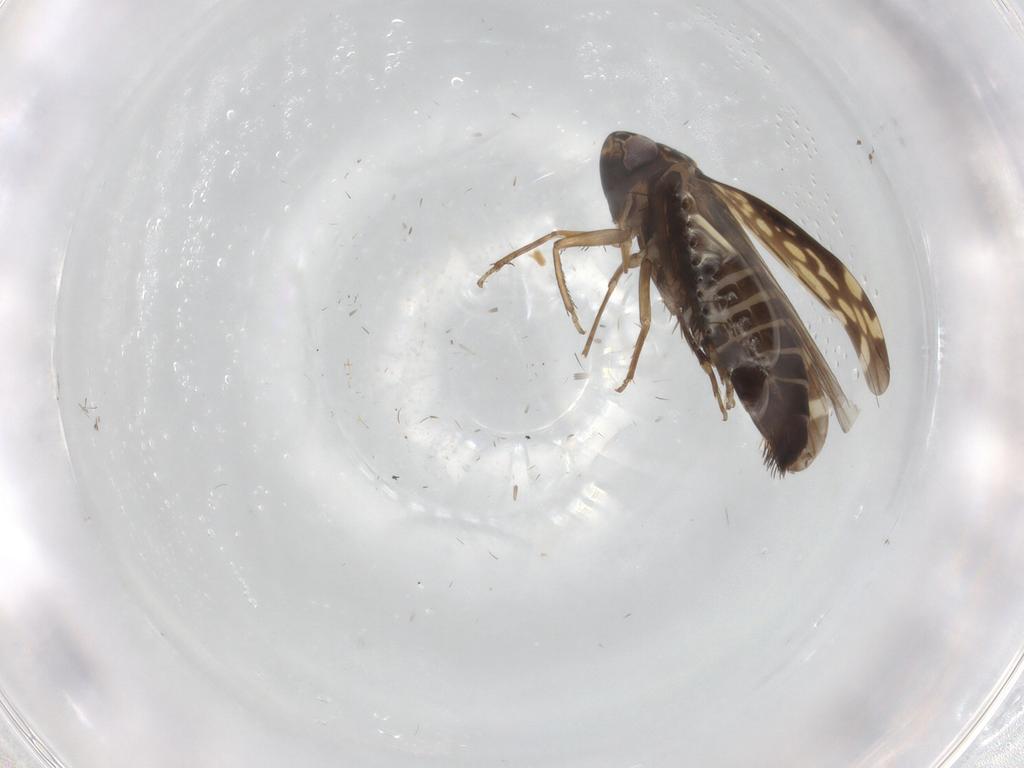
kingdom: Animalia
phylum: Arthropoda
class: Insecta
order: Hemiptera
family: Cicadellidae
